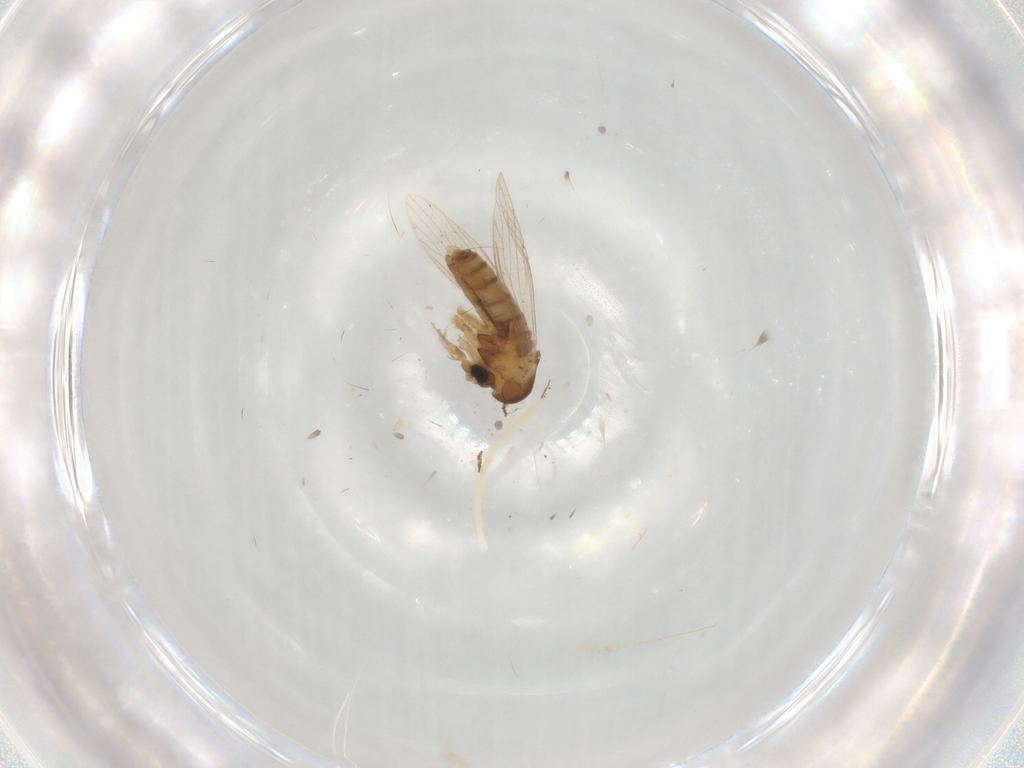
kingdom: Animalia
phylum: Arthropoda
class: Insecta
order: Diptera
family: Psychodidae
